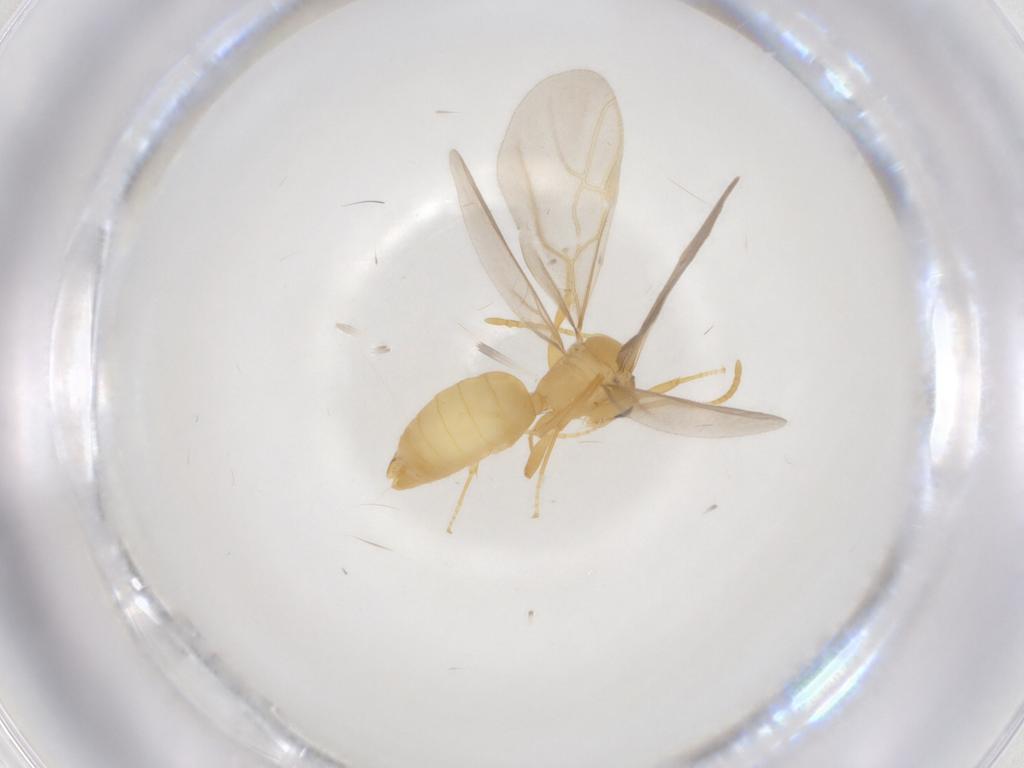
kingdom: Animalia
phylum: Arthropoda
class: Insecta
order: Hymenoptera
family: Formicidae
